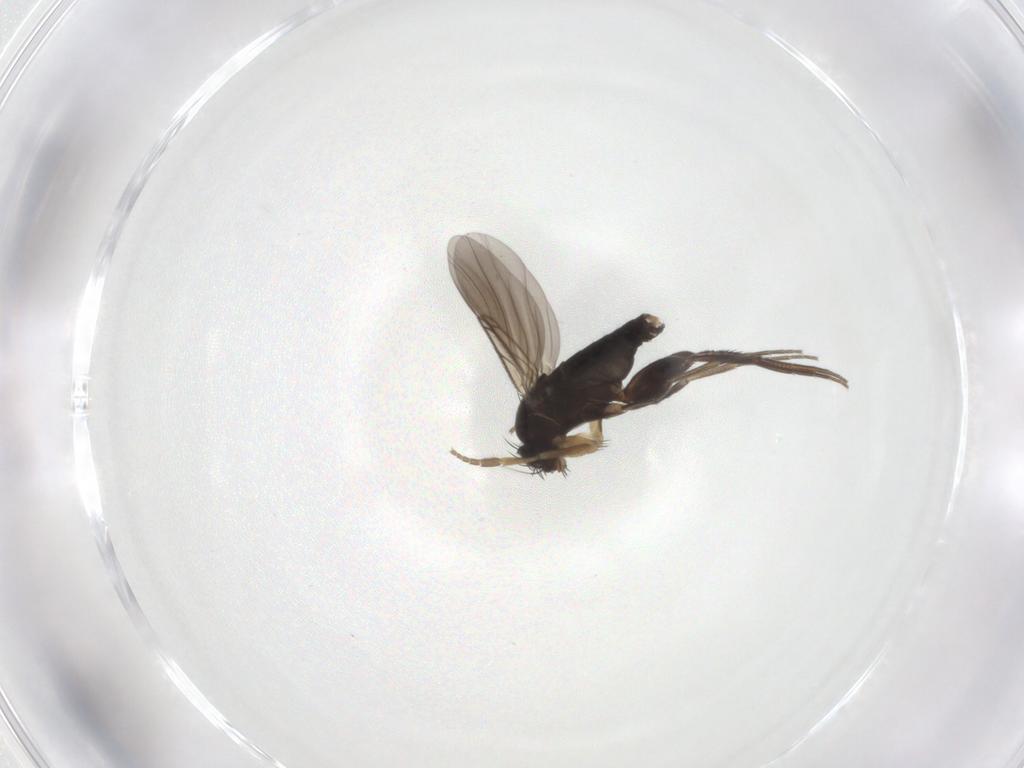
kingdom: Animalia
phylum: Arthropoda
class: Insecta
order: Diptera
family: Phoridae
